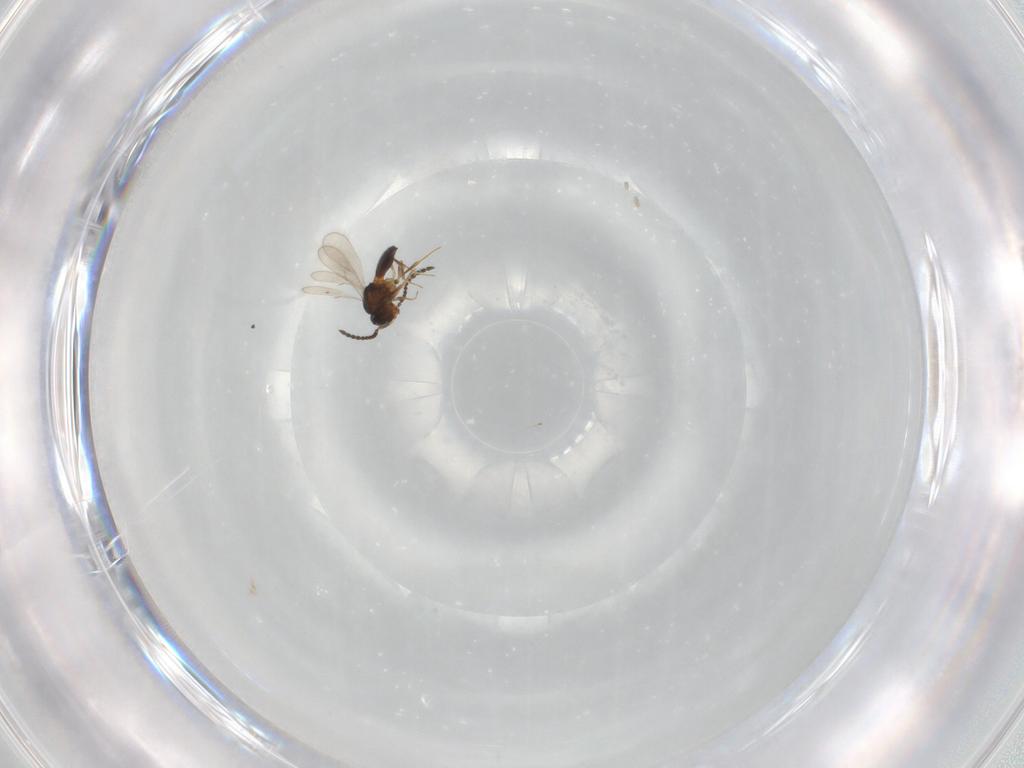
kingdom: Animalia
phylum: Arthropoda
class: Insecta
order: Hymenoptera
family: Scelionidae
